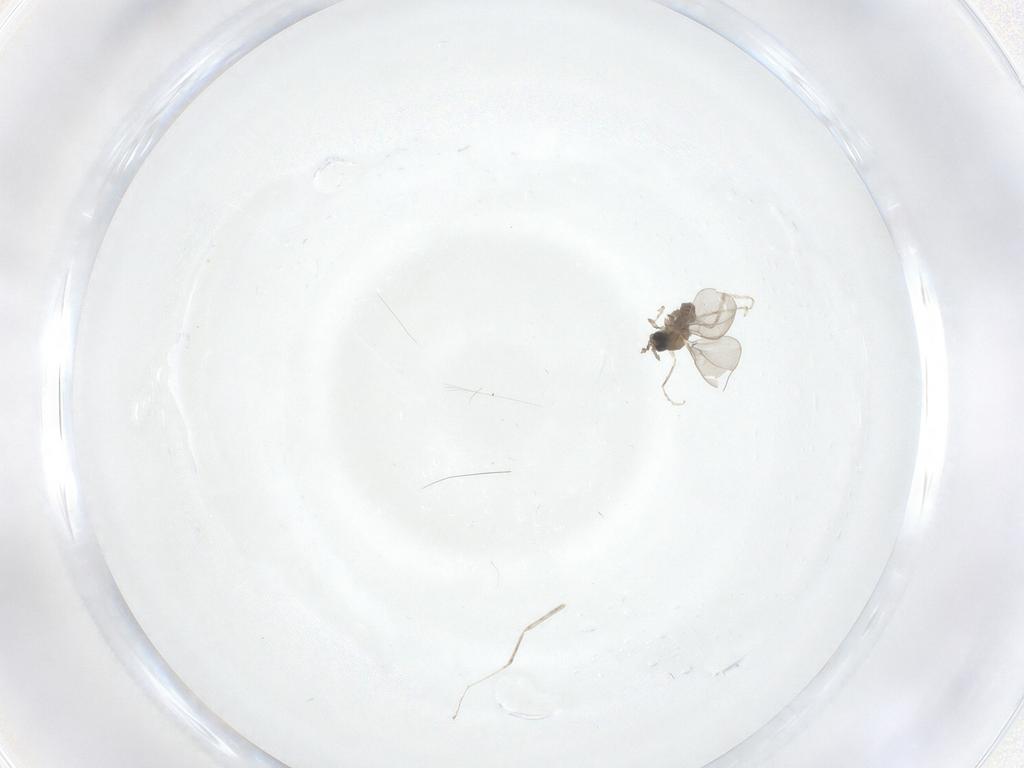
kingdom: Animalia
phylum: Arthropoda
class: Insecta
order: Diptera
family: Cecidomyiidae
